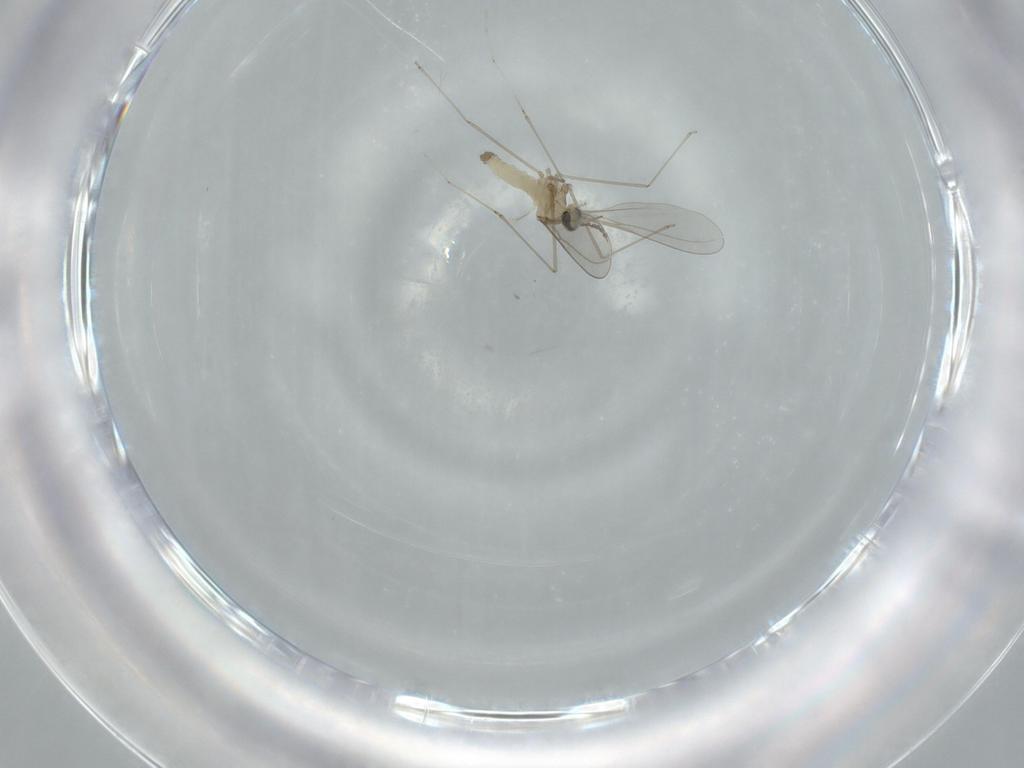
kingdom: Animalia
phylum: Arthropoda
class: Insecta
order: Diptera
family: Cecidomyiidae
